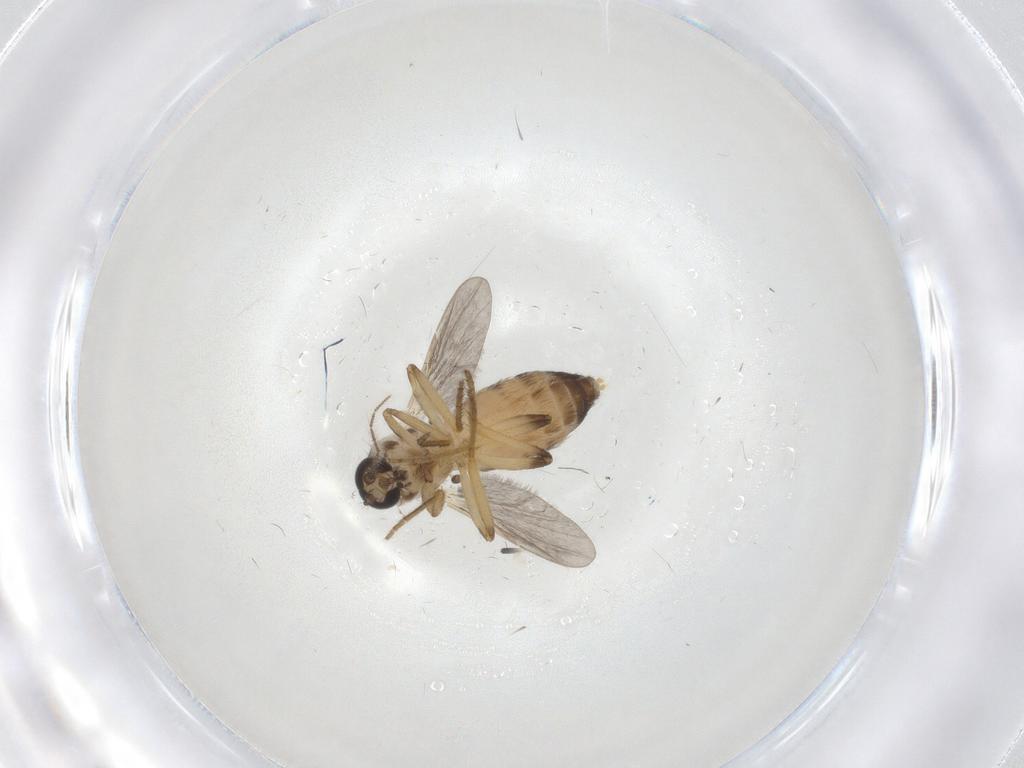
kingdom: Animalia
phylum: Arthropoda
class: Insecta
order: Diptera
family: Ceratopogonidae
